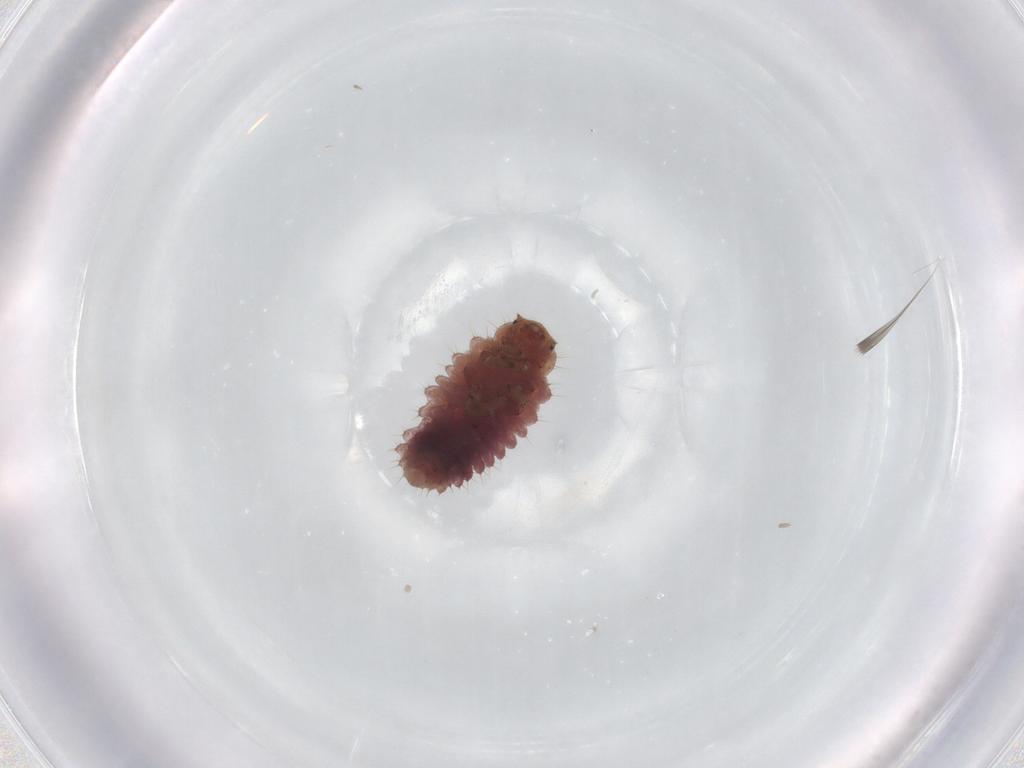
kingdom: Animalia
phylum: Arthropoda
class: Insecta
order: Coleoptera
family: Coccinellidae
